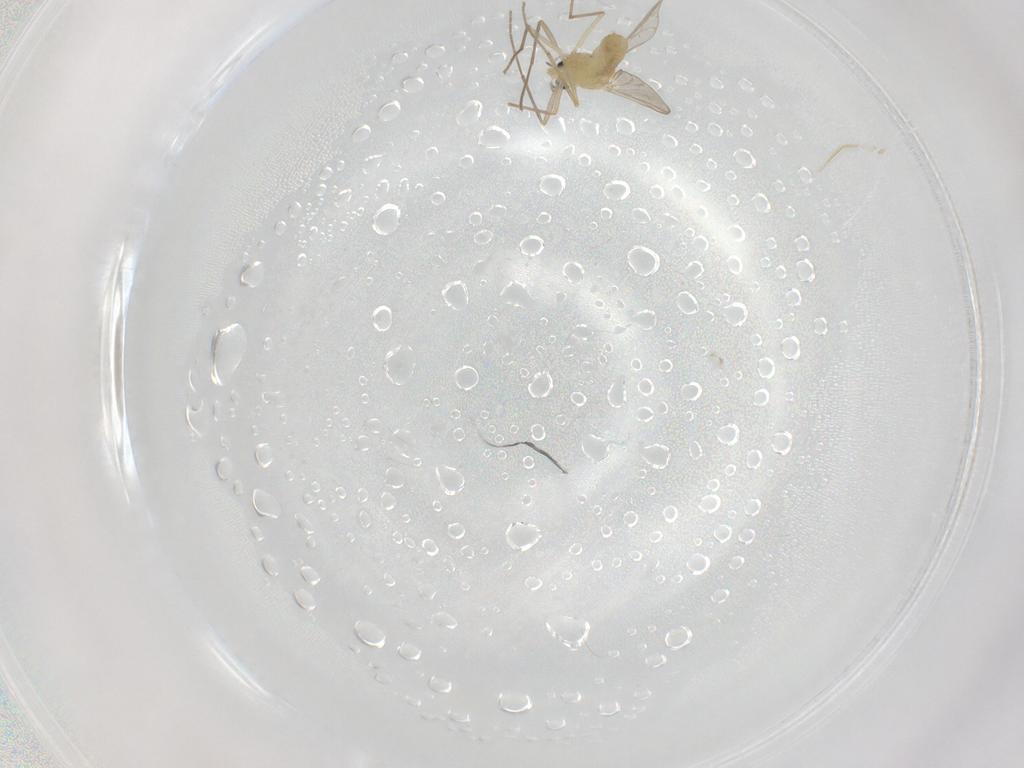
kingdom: Animalia
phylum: Arthropoda
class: Insecta
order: Diptera
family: Chironomidae
